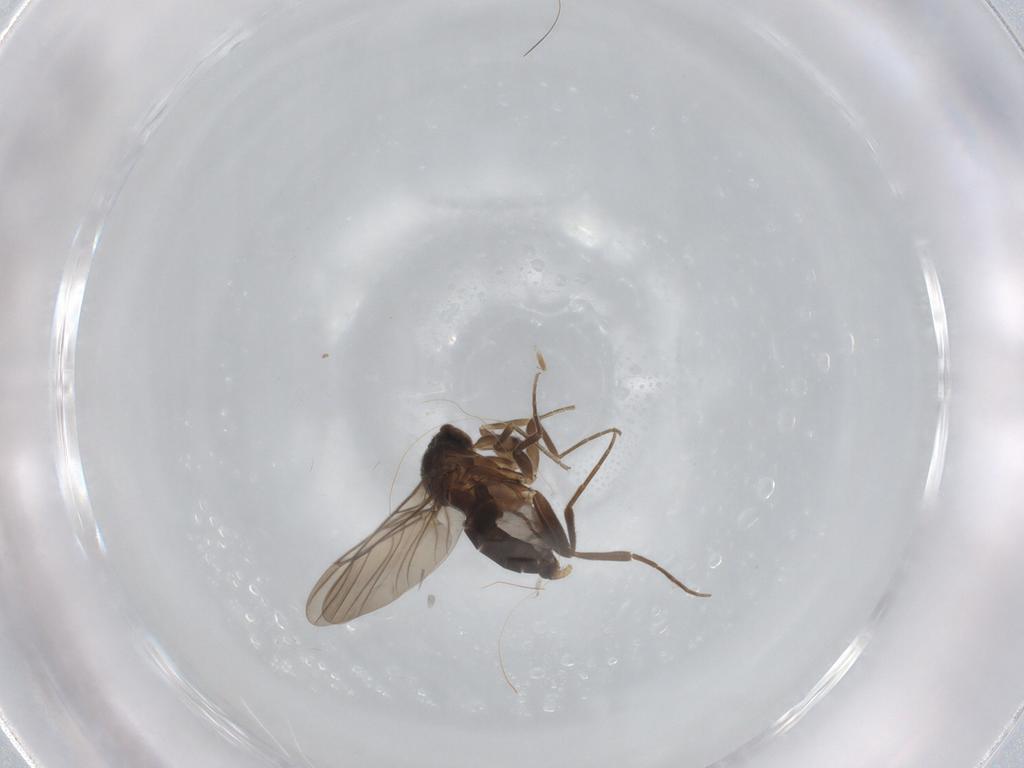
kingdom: Animalia
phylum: Arthropoda
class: Insecta
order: Diptera
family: Phoridae
